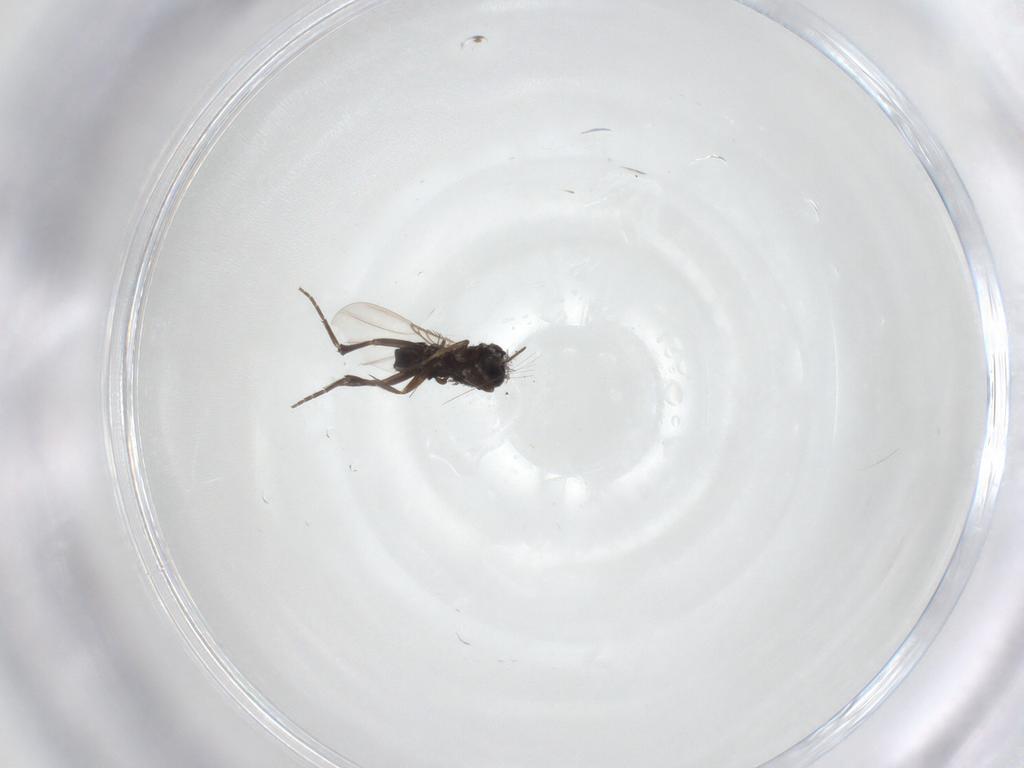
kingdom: Animalia
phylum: Arthropoda
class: Insecta
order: Diptera
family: Phoridae
